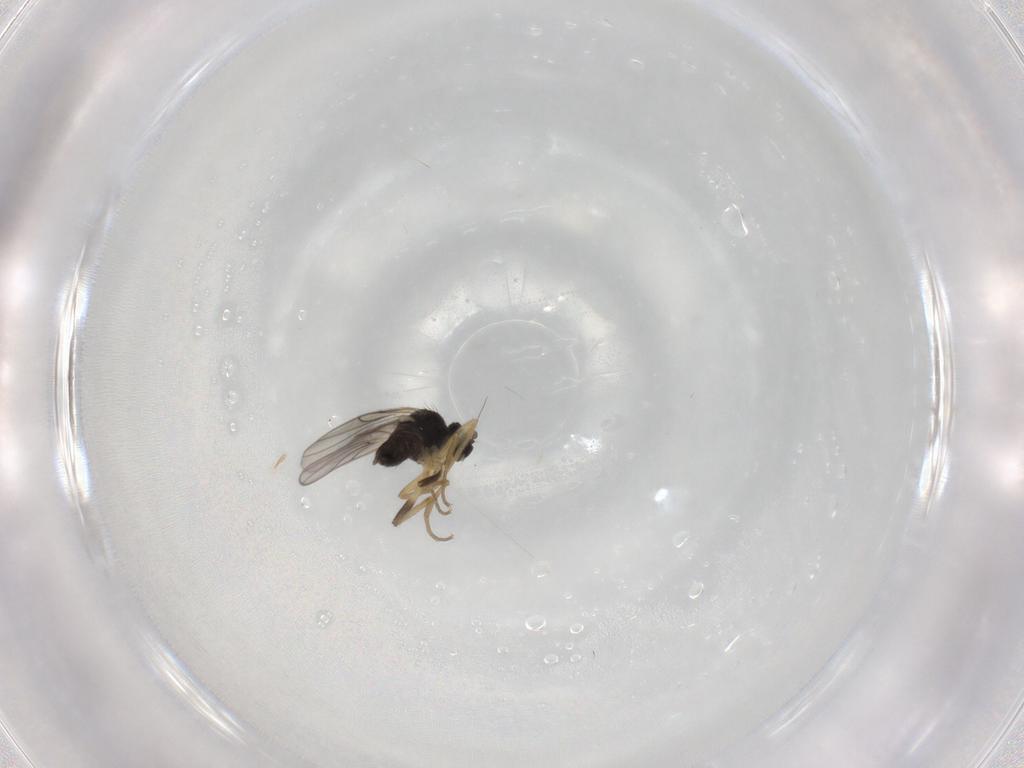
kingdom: Animalia
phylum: Arthropoda
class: Insecta
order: Diptera
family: Hybotidae
